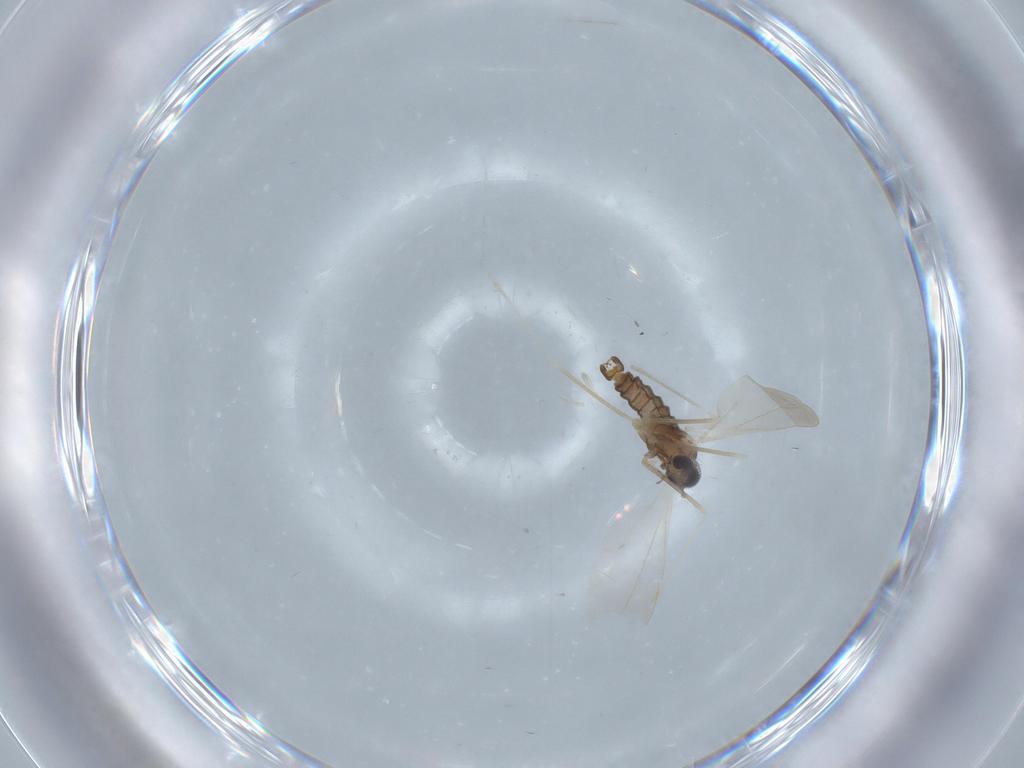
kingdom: Animalia
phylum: Arthropoda
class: Insecta
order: Diptera
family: Cecidomyiidae
